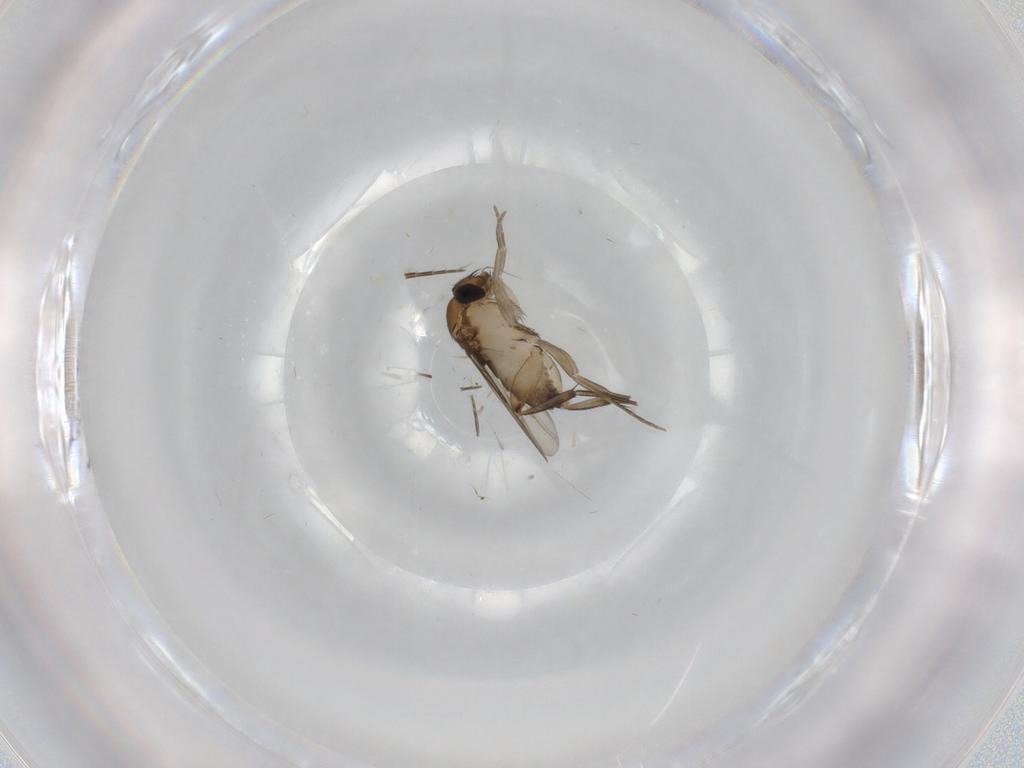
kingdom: Animalia
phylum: Arthropoda
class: Insecta
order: Diptera
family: Phoridae
